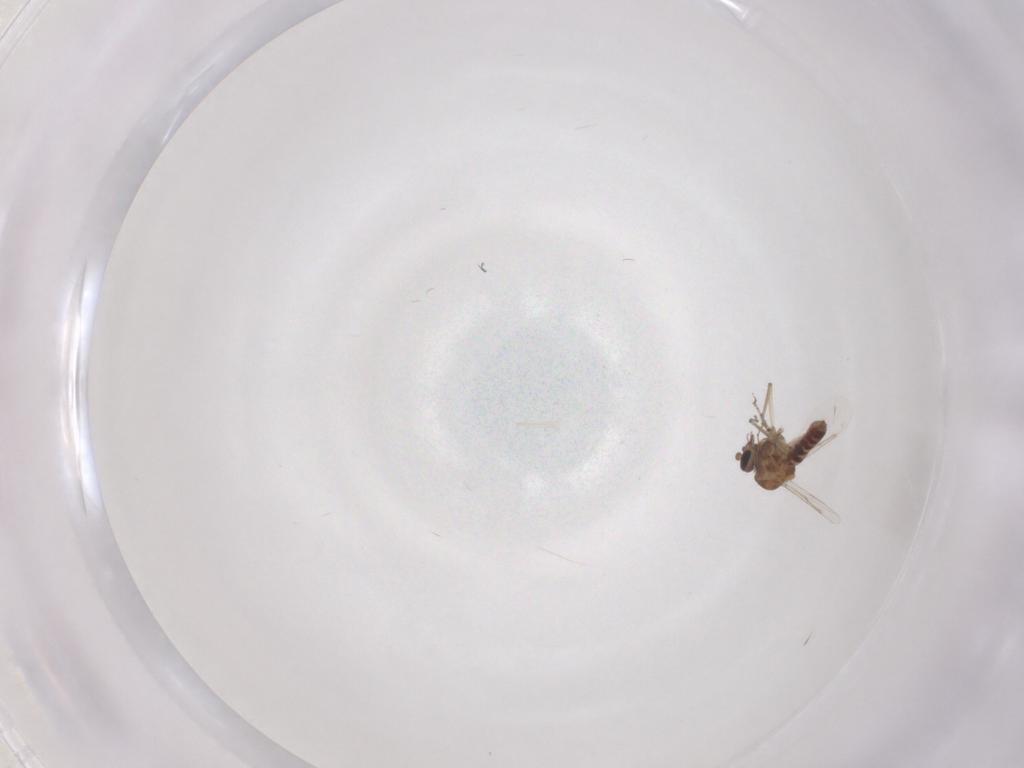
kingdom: Animalia
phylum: Arthropoda
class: Insecta
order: Diptera
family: Ceratopogonidae
